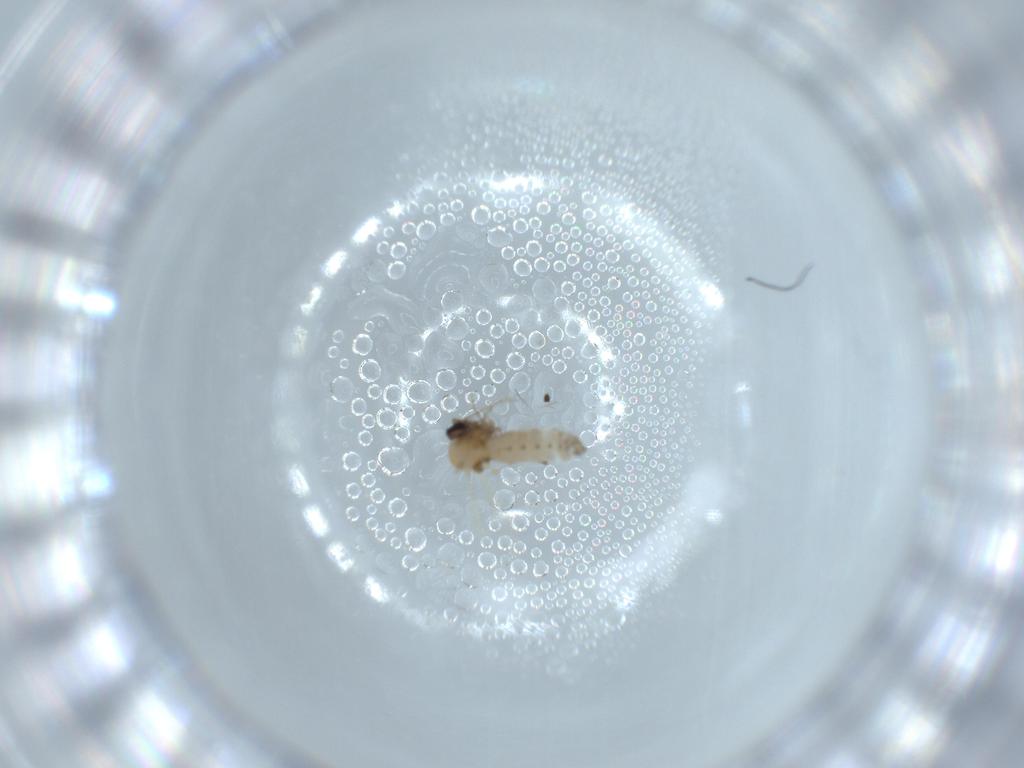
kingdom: Animalia
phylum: Arthropoda
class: Insecta
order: Diptera
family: Ceratopogonidae
